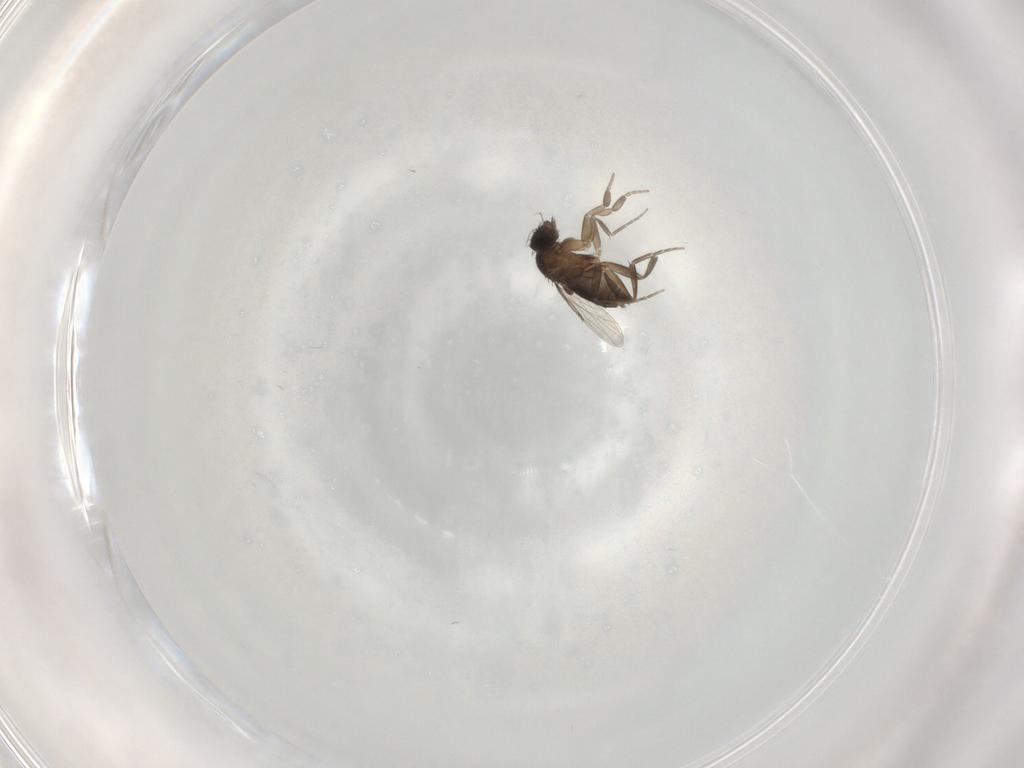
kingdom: Animalia
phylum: Arthropoda
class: Insecta
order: Diptera
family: Phoridae
